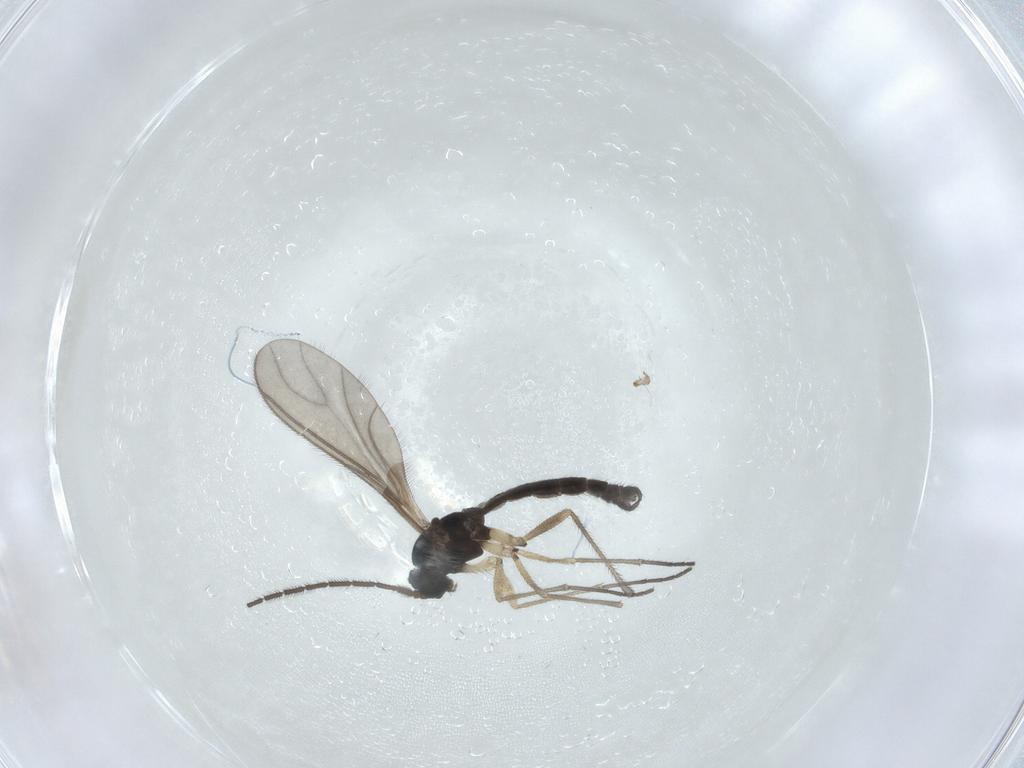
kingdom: Animalia
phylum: Arthropoda
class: Insecta
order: Diptera
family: Sciaridae
